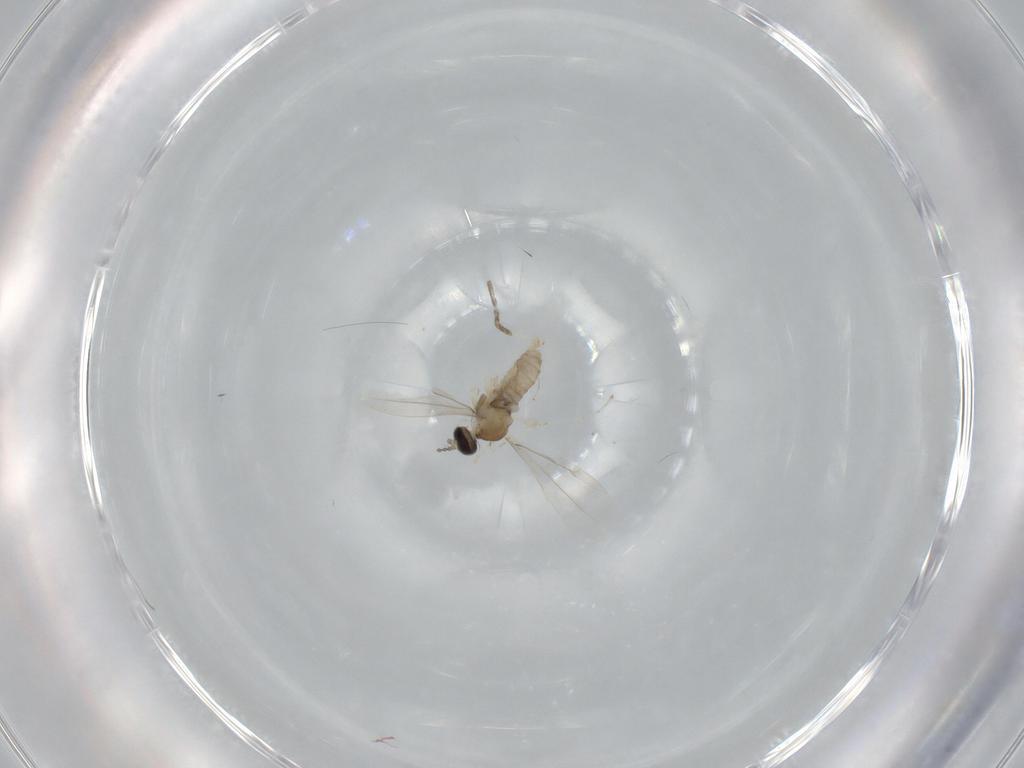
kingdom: Animalia
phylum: Arthropoda
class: Insecta
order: Diptera
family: Milichiidae
